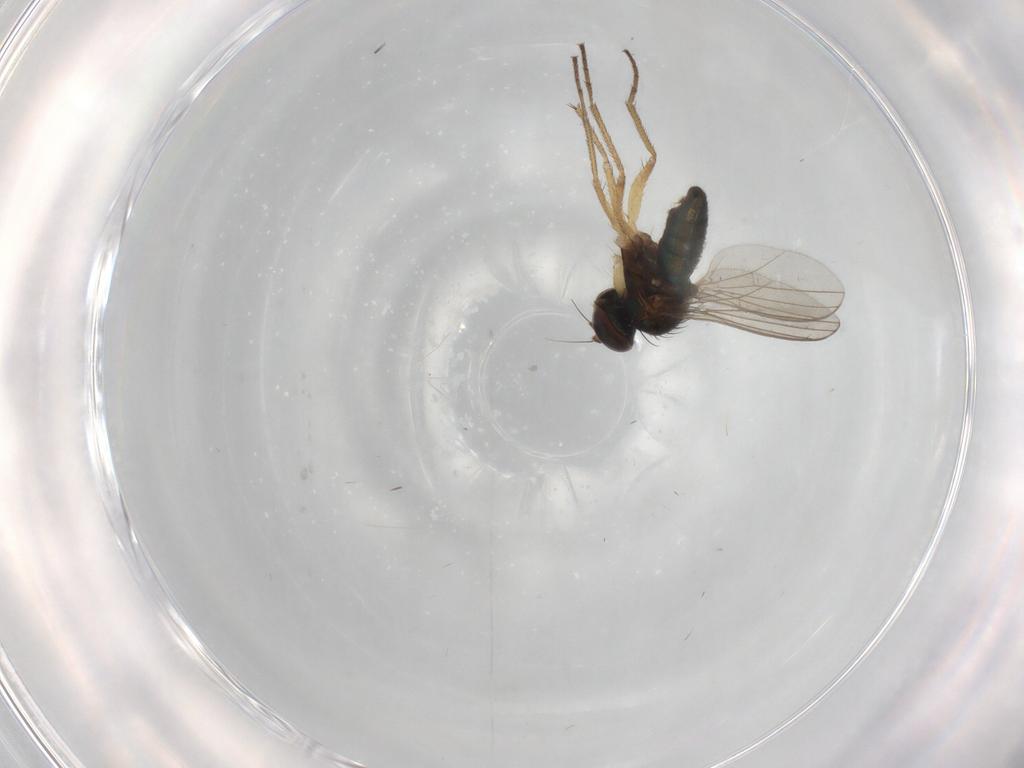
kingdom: Animalia
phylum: Arthropoda
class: Insecta
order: Diptera
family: Dolichopodidae
